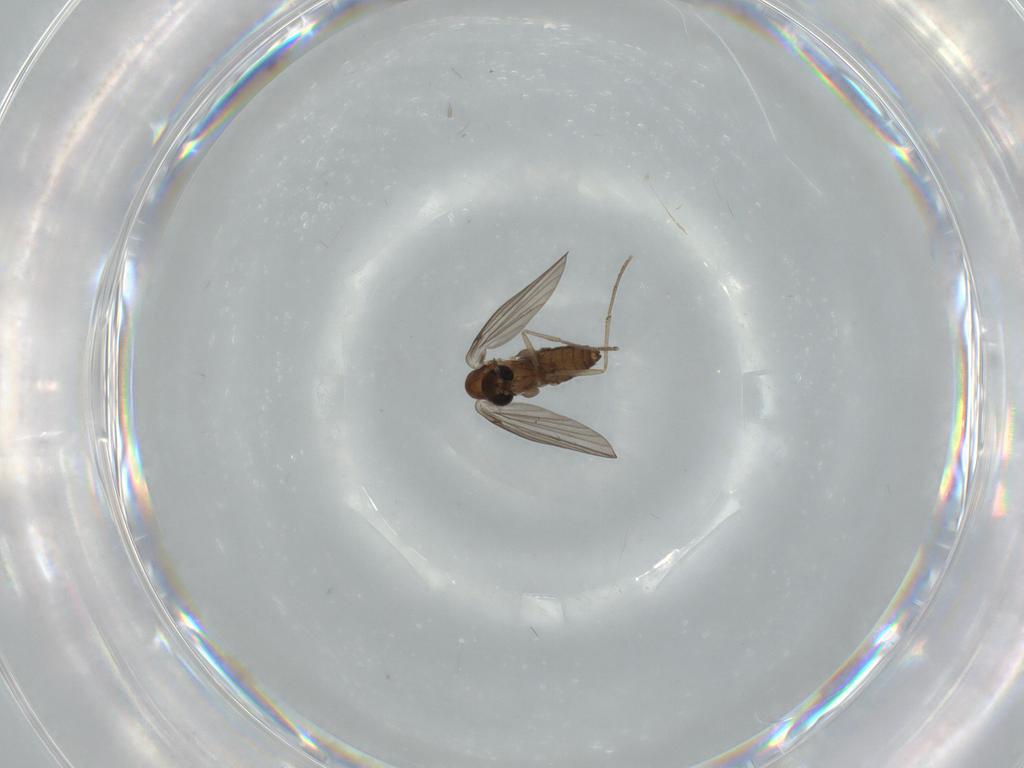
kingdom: Animalia
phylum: Arthropoda
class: Insecta
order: Diptera
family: Psychodidae
